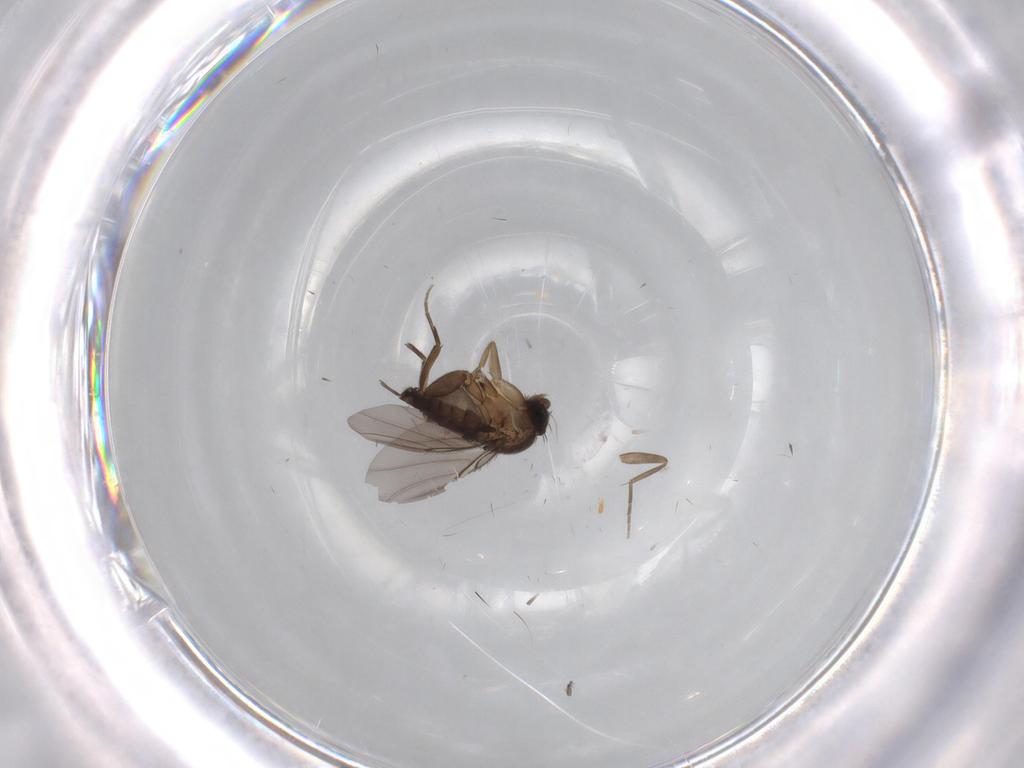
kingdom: Animalia
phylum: Arthropoda
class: Insecta
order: Diptera
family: Phoridae
